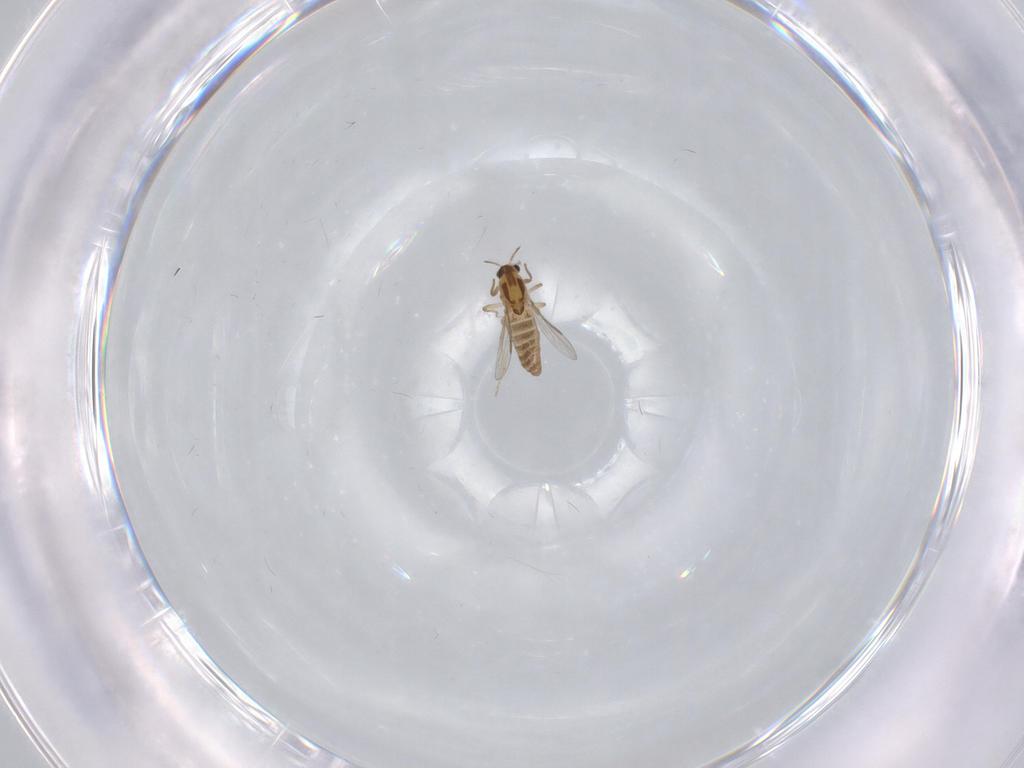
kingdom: Animalia
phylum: Arthropoda
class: Insecta
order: Diptera
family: Chironomidae
